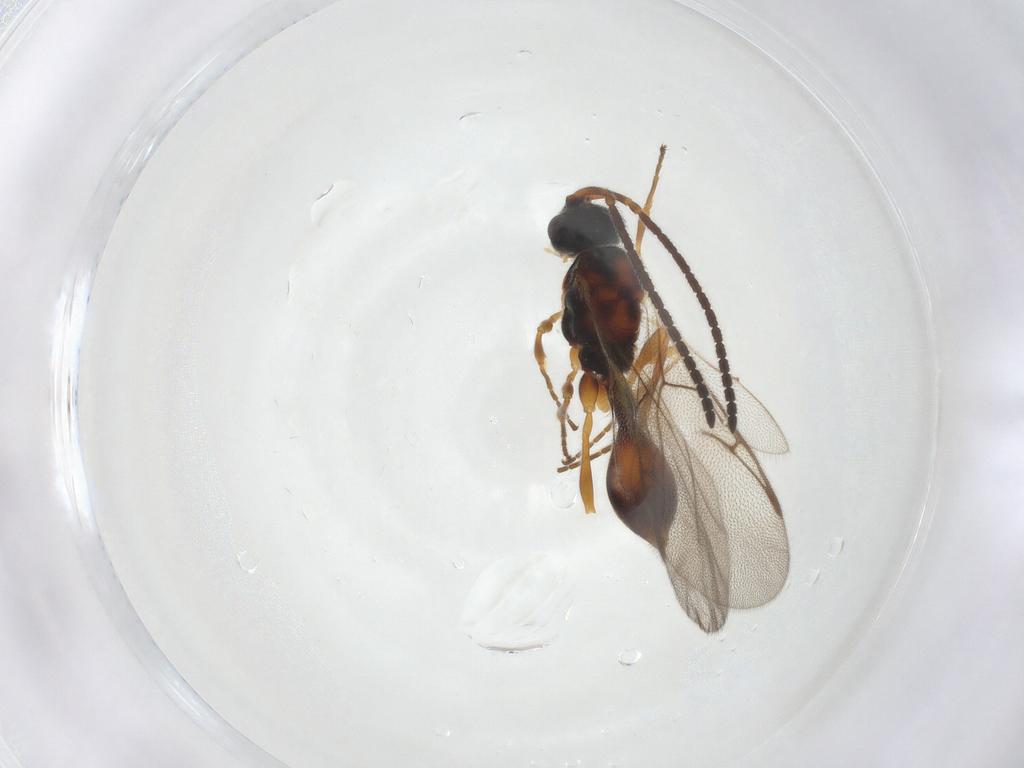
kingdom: Animalia
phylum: Arthropoda
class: Insecta
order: Hymenoptera
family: Diapriidae
